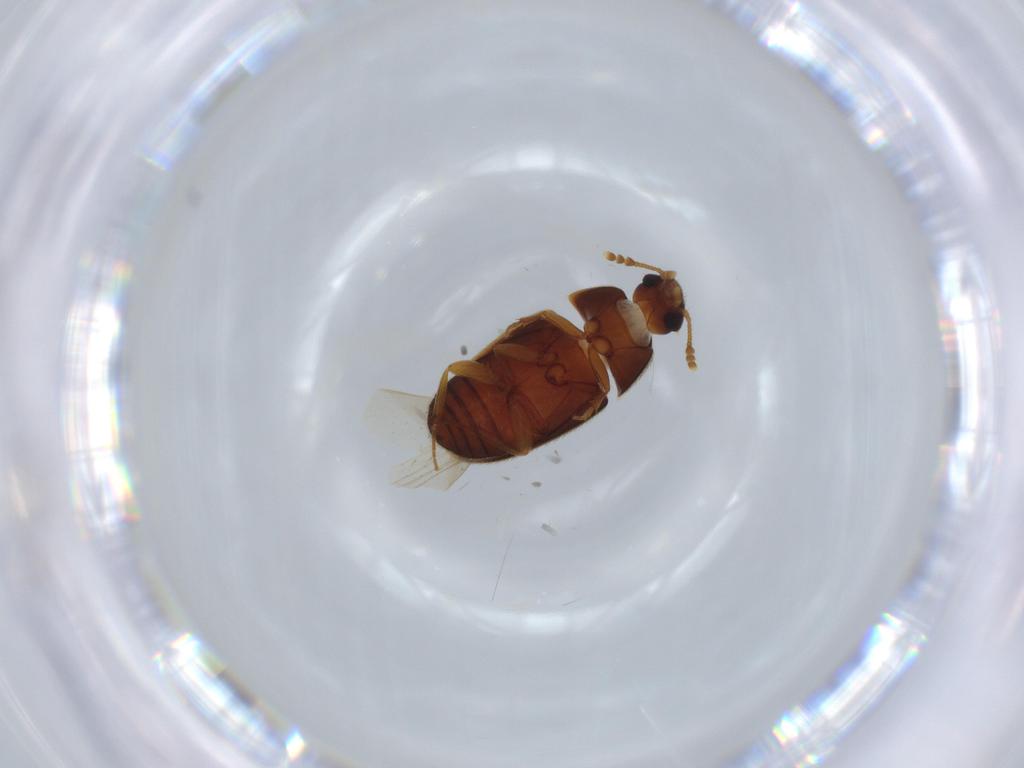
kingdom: Animalia
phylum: Arthropoda
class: Insecta
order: Coleoptera
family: Mycetophagidae
